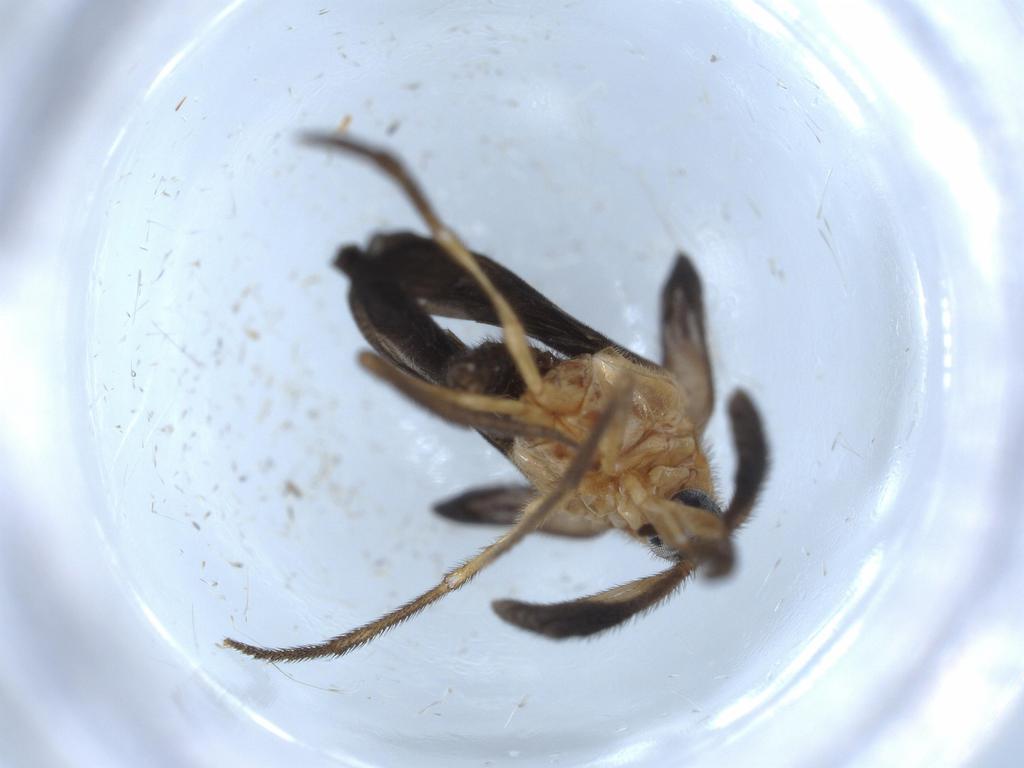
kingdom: Animalia
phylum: Arthropoda
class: Insecta
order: Coleoptera
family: Ripiphoridae
